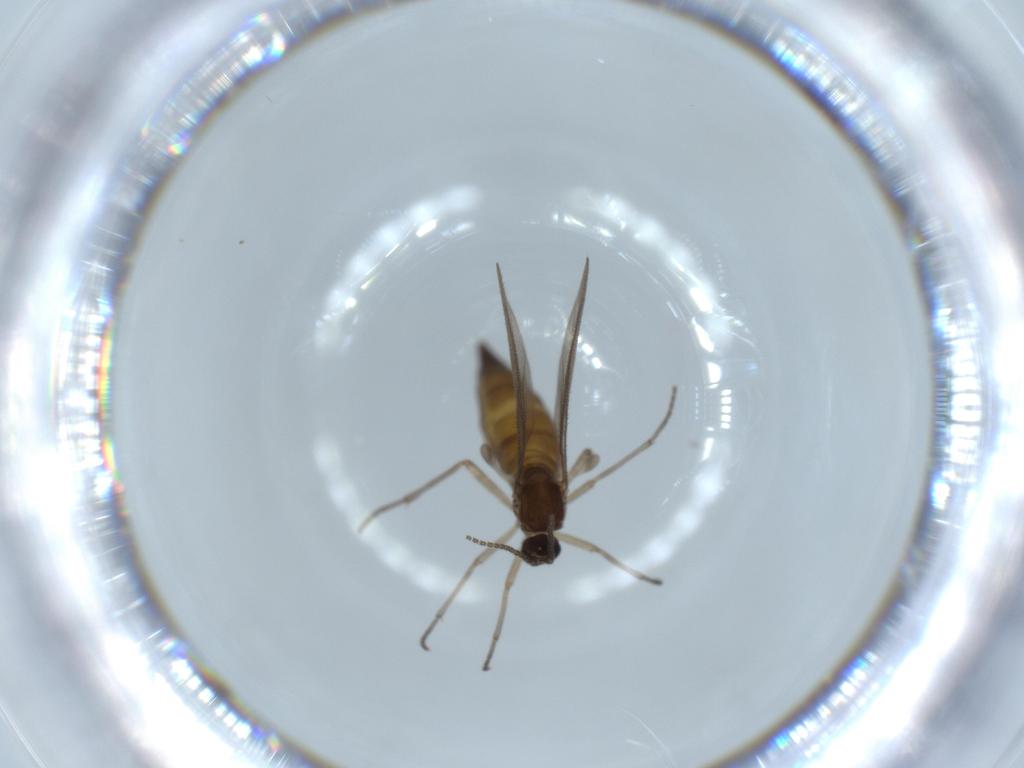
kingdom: Animalia
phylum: Arthropoda
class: Insecta
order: Diptera
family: Sciaridae
